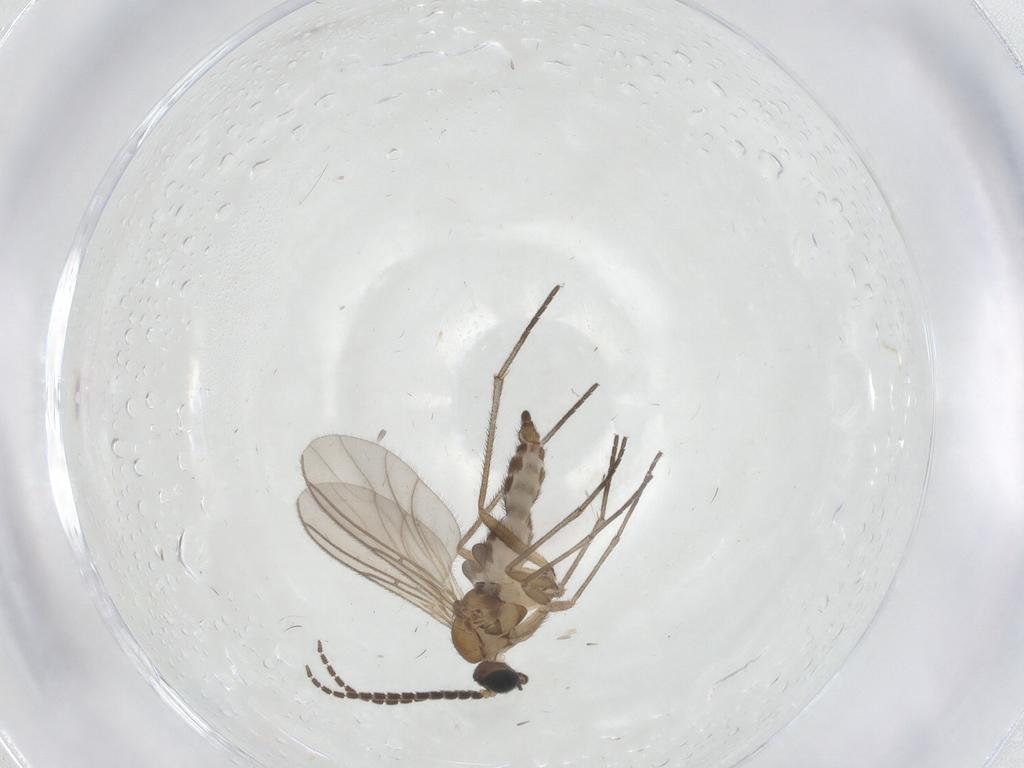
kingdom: Animalia
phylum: Arthropoda
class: Insecta
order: Diptera
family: Sciaridae
